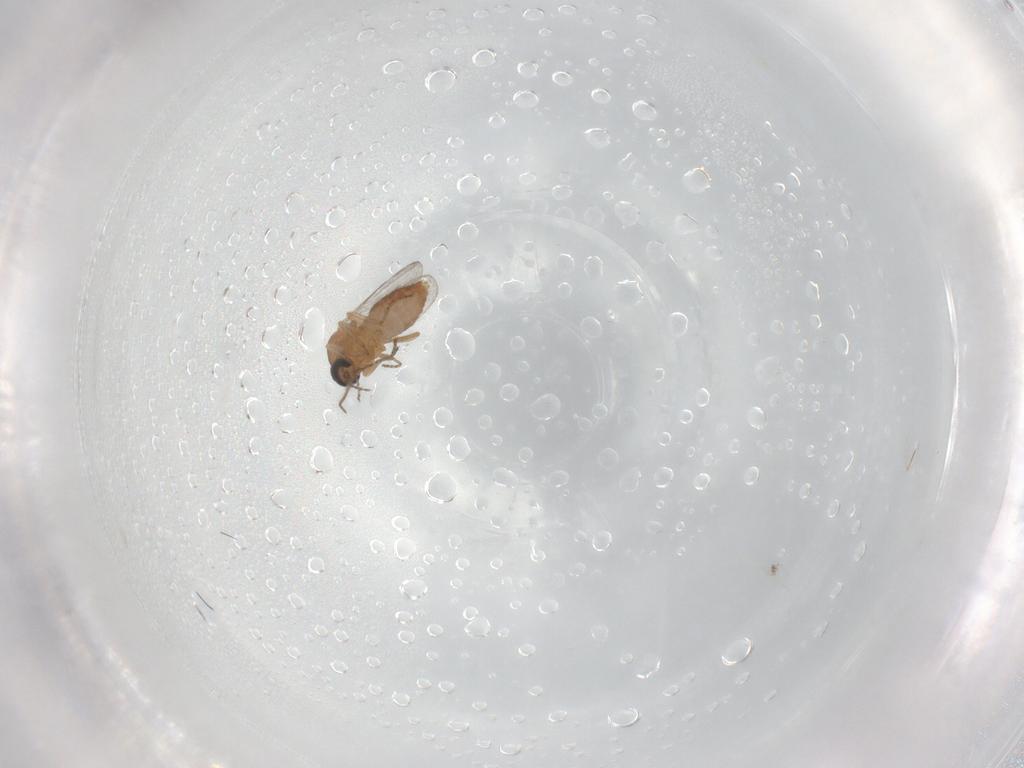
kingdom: Animalia
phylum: Arthropoda
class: Insecta
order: Diptera
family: Ceratopogonidae
